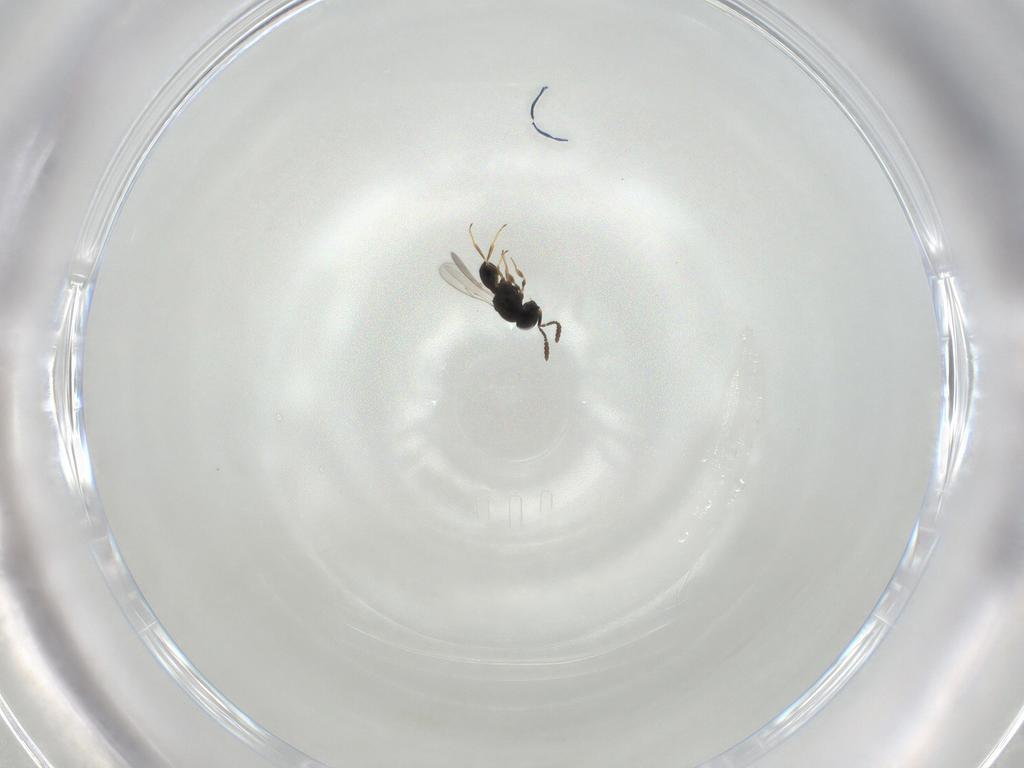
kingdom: Animalia
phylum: Arthropoda
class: Insecta
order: Hymenoptera
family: Scelionidae
